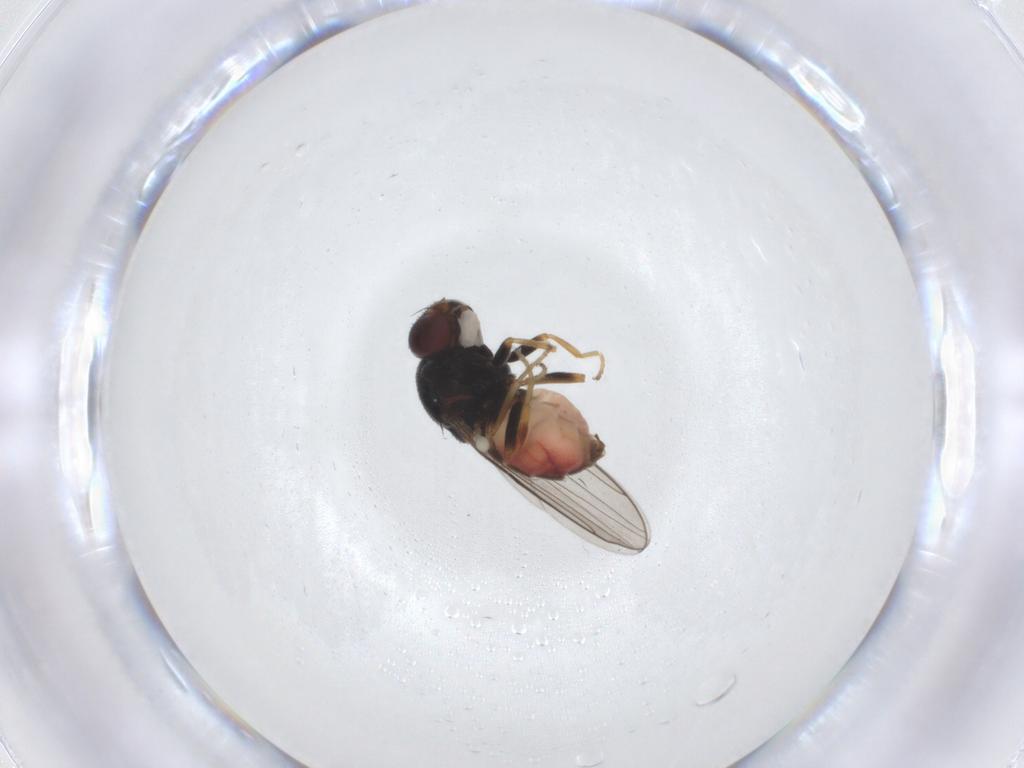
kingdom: Animalia
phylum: Arthropoda
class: Insecta
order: Diptera
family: Chloropidae
